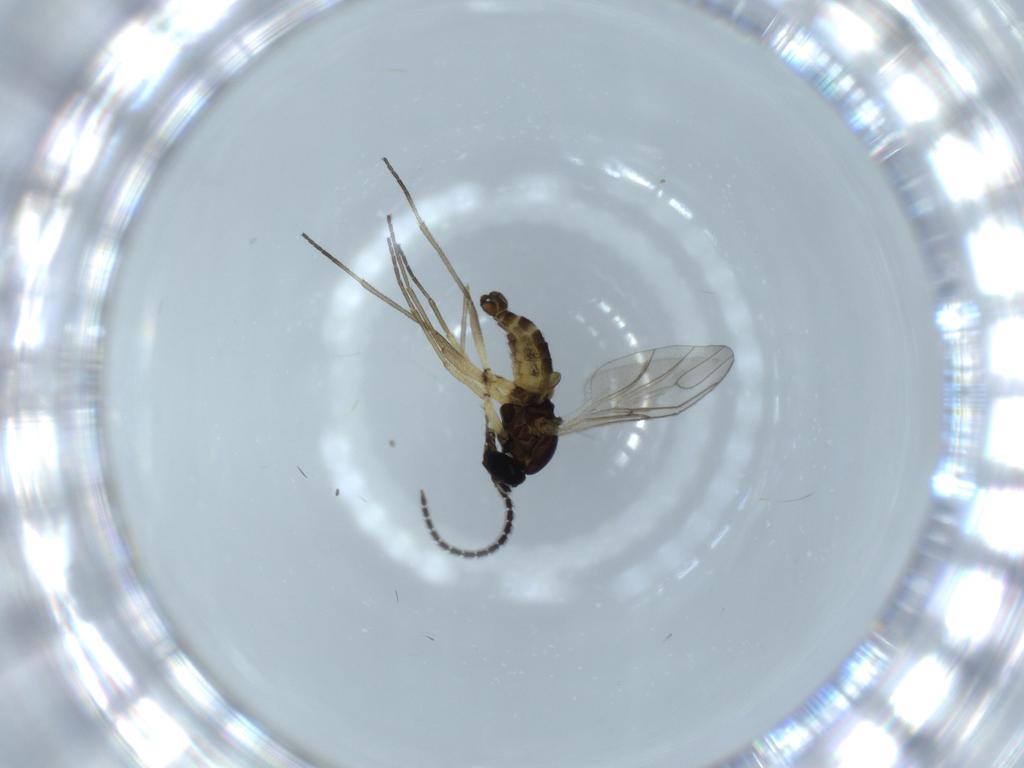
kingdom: Animalia
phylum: Arthropoda
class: Insecta
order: Diptera
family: Sciaridae
